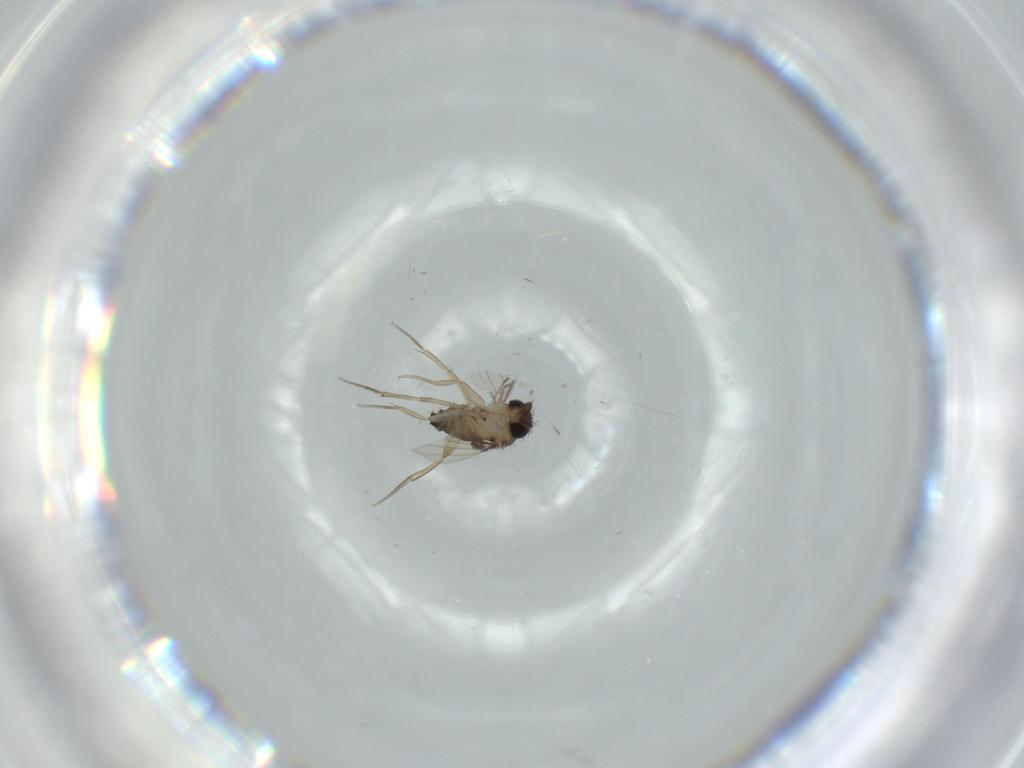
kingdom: Animalia
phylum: Arthropoda
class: Insecta
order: Diptera
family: Phoridae
